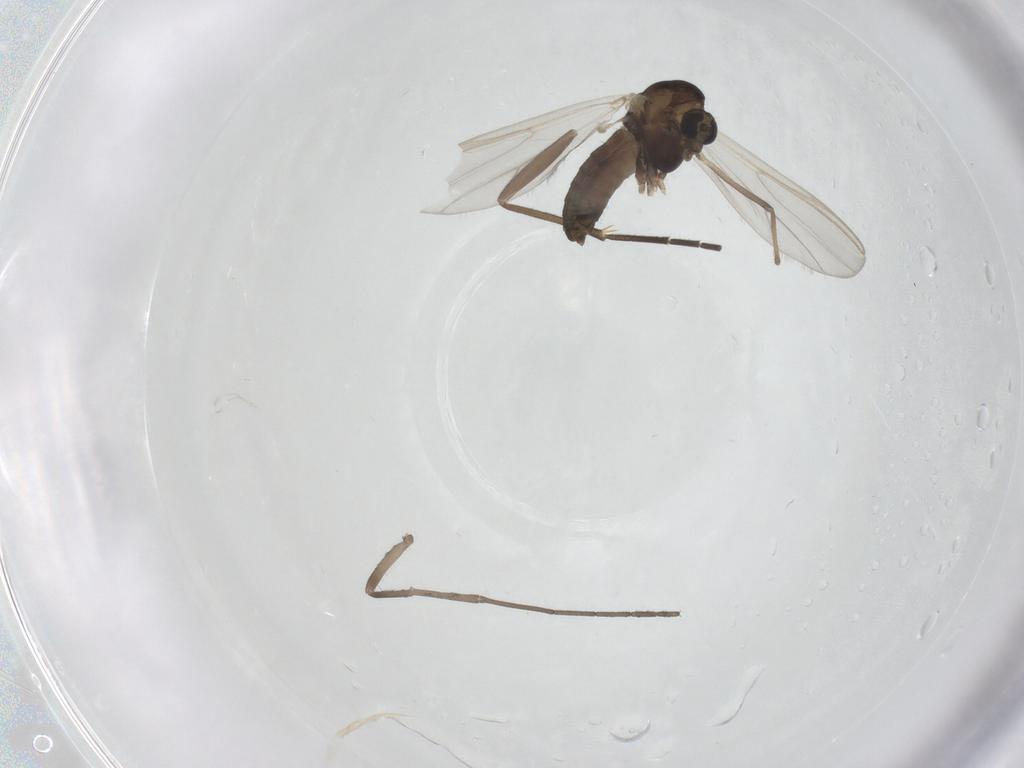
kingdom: Animalia
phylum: Arthropoda
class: Insecta
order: Diptera
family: Chironomidae
